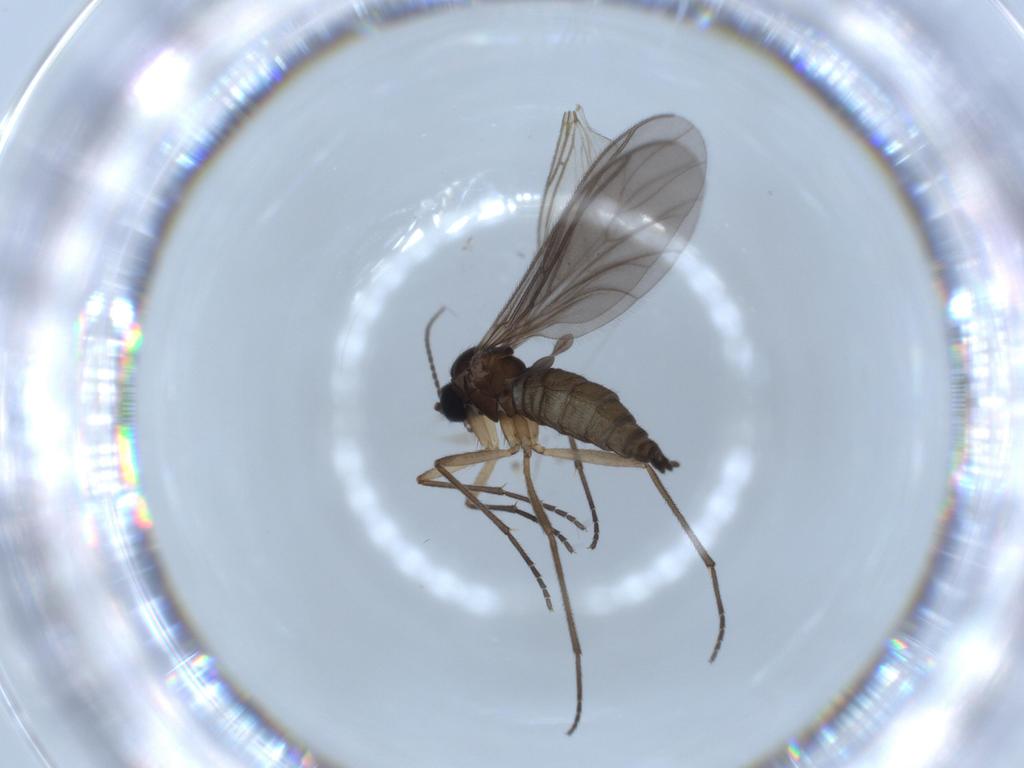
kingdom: Animalia
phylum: Arthropoda
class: Insecta
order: Diptera
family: Sciaridae
